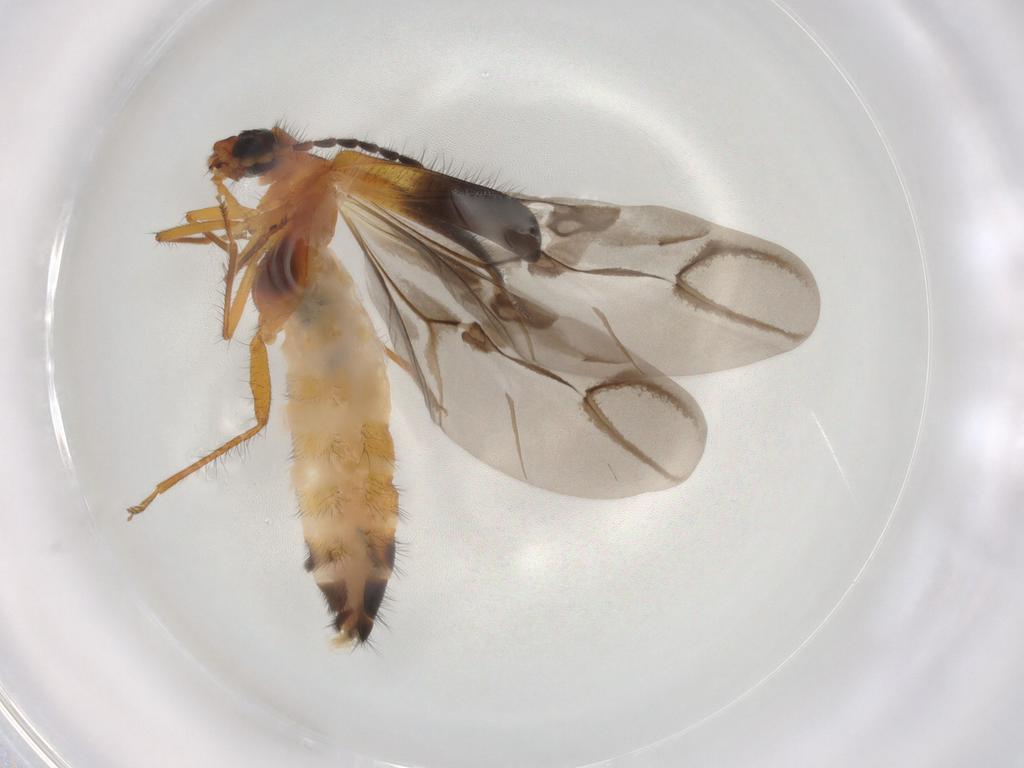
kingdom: Animalia
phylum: Arthropoda
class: Insecta
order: Coleoptera
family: Melyridae
